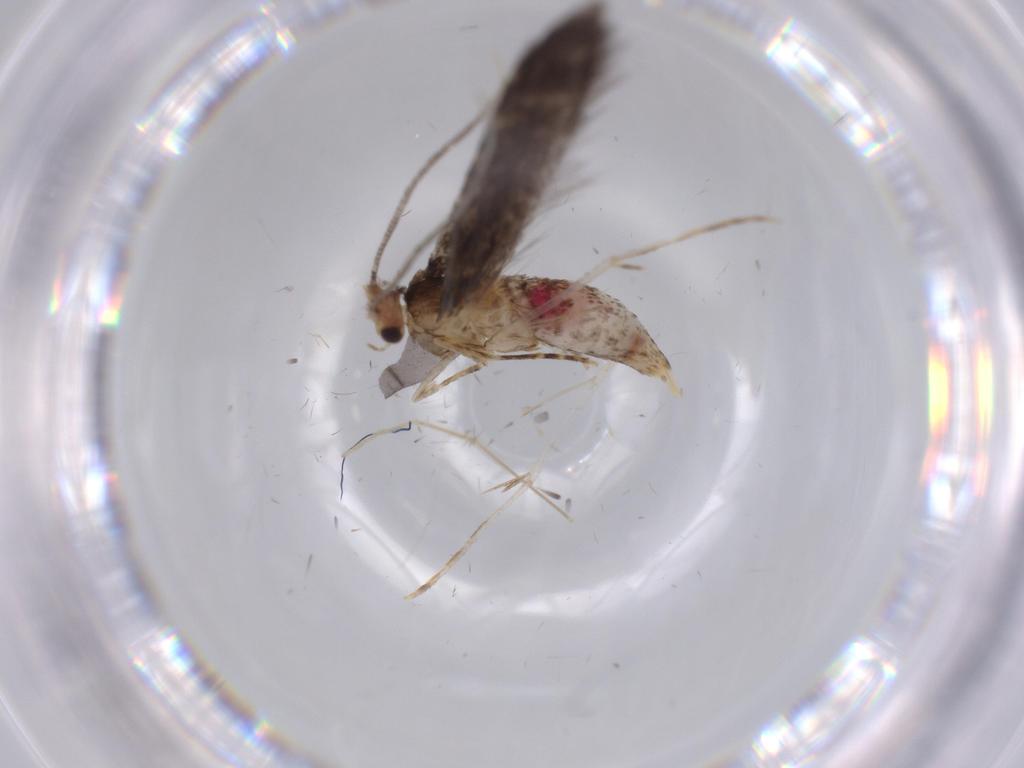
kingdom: Animalia
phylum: Arthropoda
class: Insecta
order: Lepidoptera
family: Tineidae
